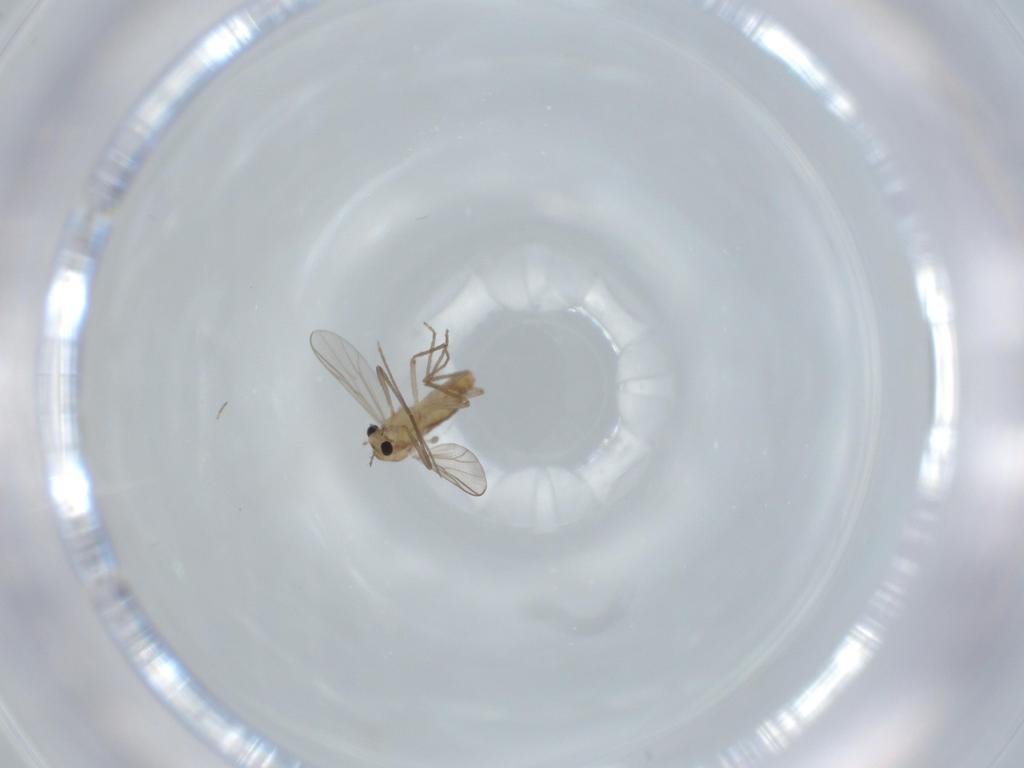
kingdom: Animalia
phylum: Arthropoda
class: Insecta
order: Diptera
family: Chironomidae
